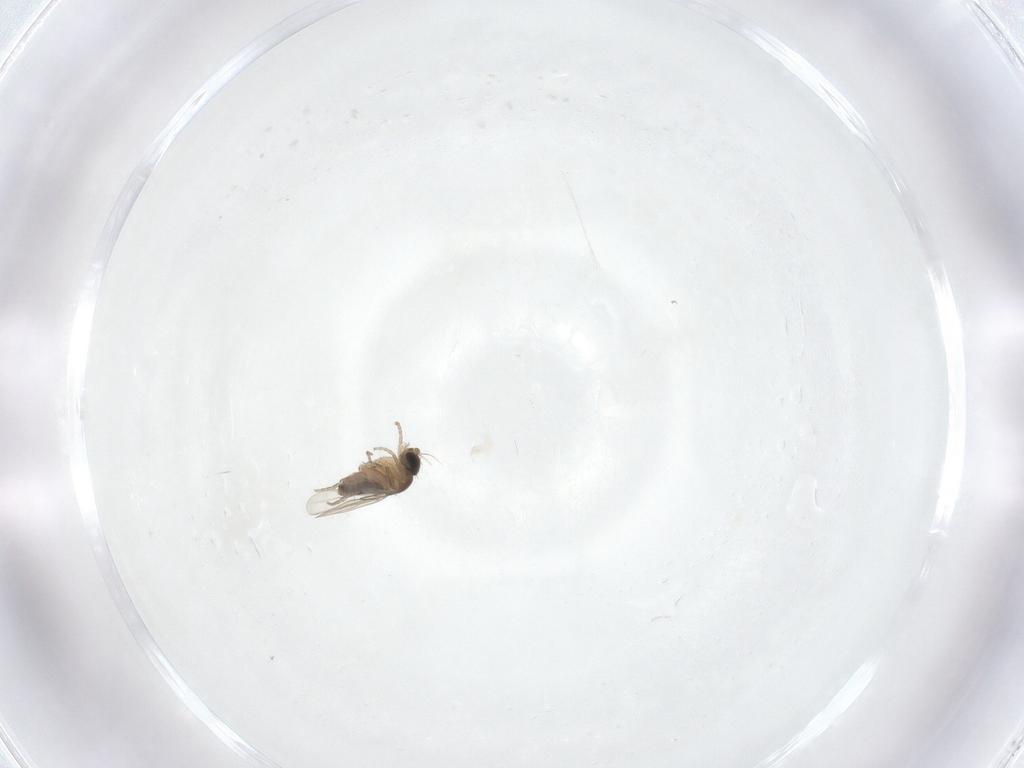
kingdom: Animalia
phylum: Arthropoda
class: Insecta
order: Diptera
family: Cecidomyiidae
